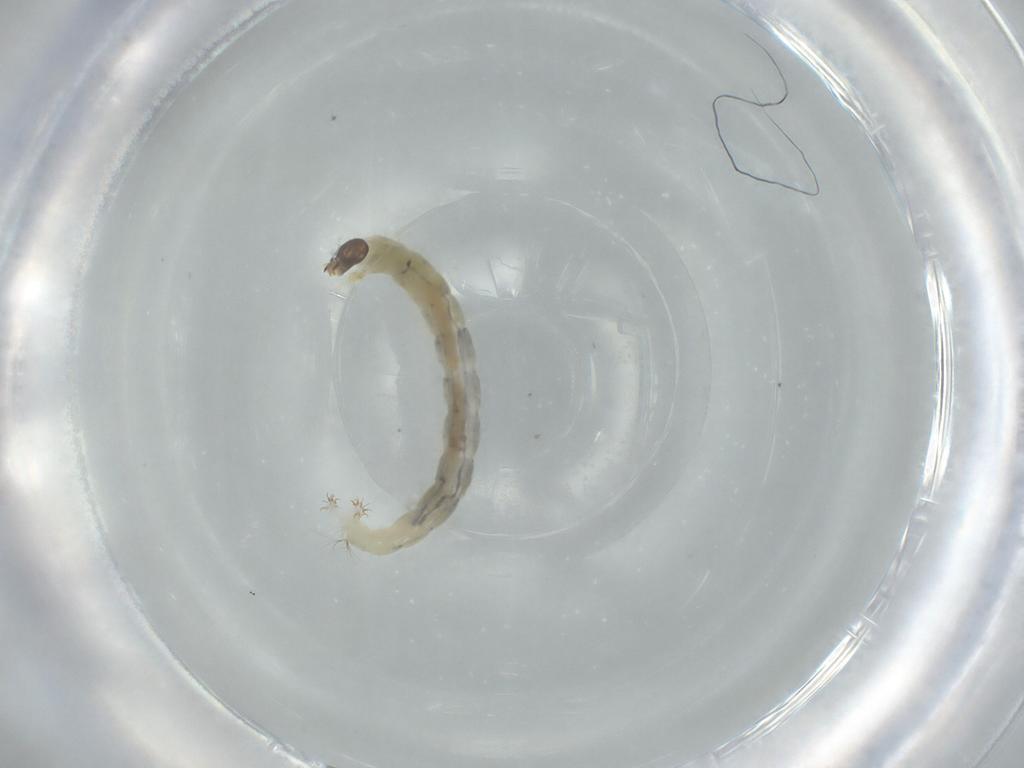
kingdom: Animalia
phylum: Arthropoda
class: Insecta
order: Diptera
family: Chironomidae
